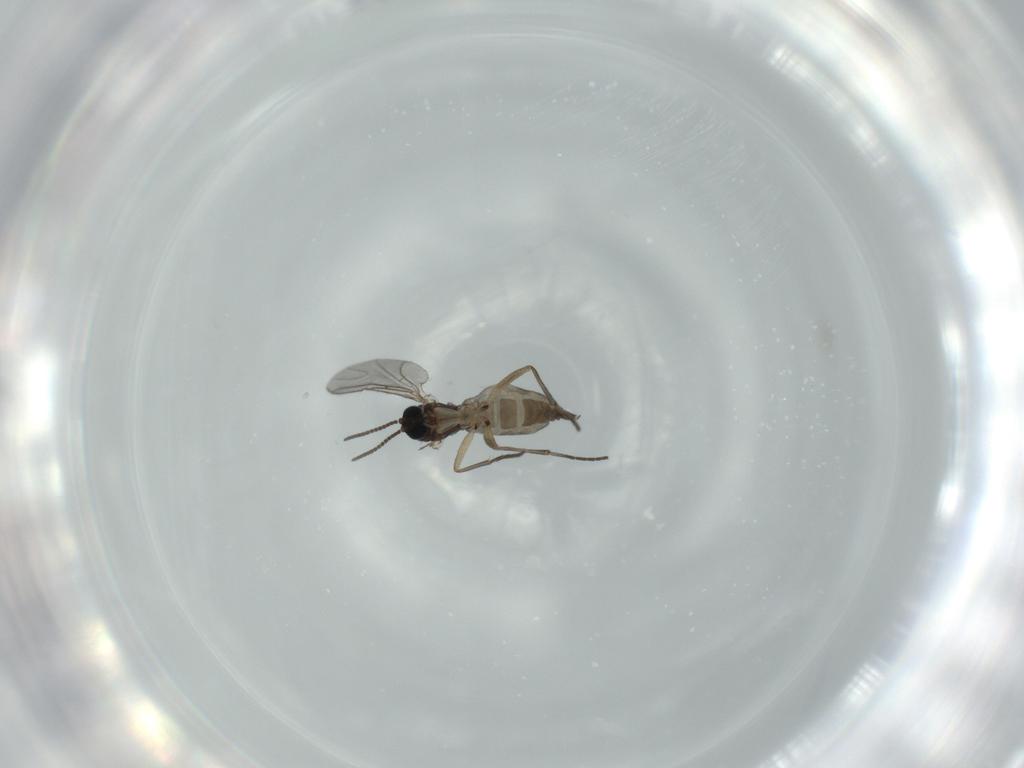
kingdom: Animalia
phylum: Arthropoda
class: Insecta
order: Diptera
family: Sciaridae
